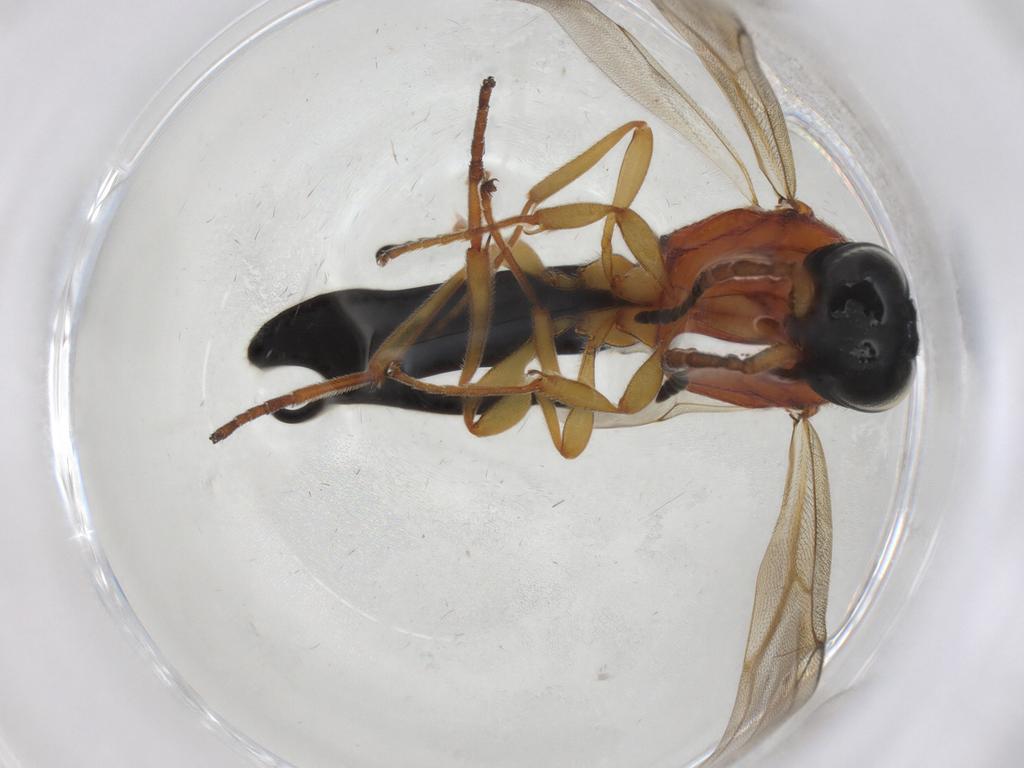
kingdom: Animalia
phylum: Arthropoda
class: Insecta
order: Hymenoptera
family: Scelionidae
